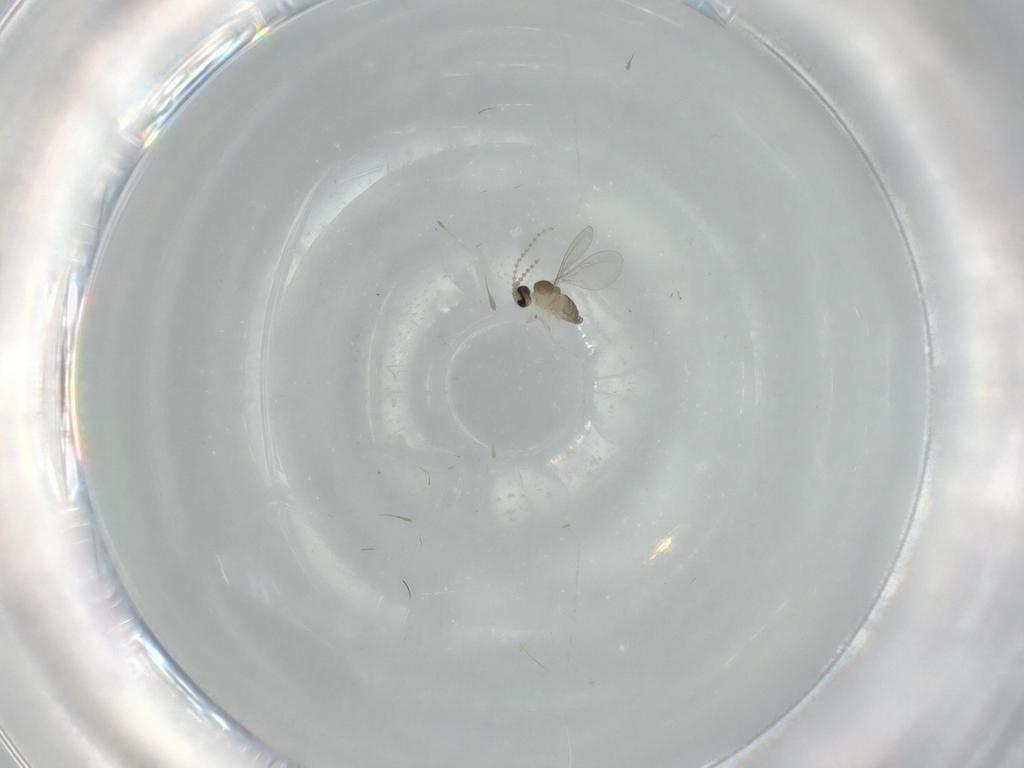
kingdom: Animalia
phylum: Arthropoda
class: Insecta
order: Diptera
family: Cecidomyiidae
